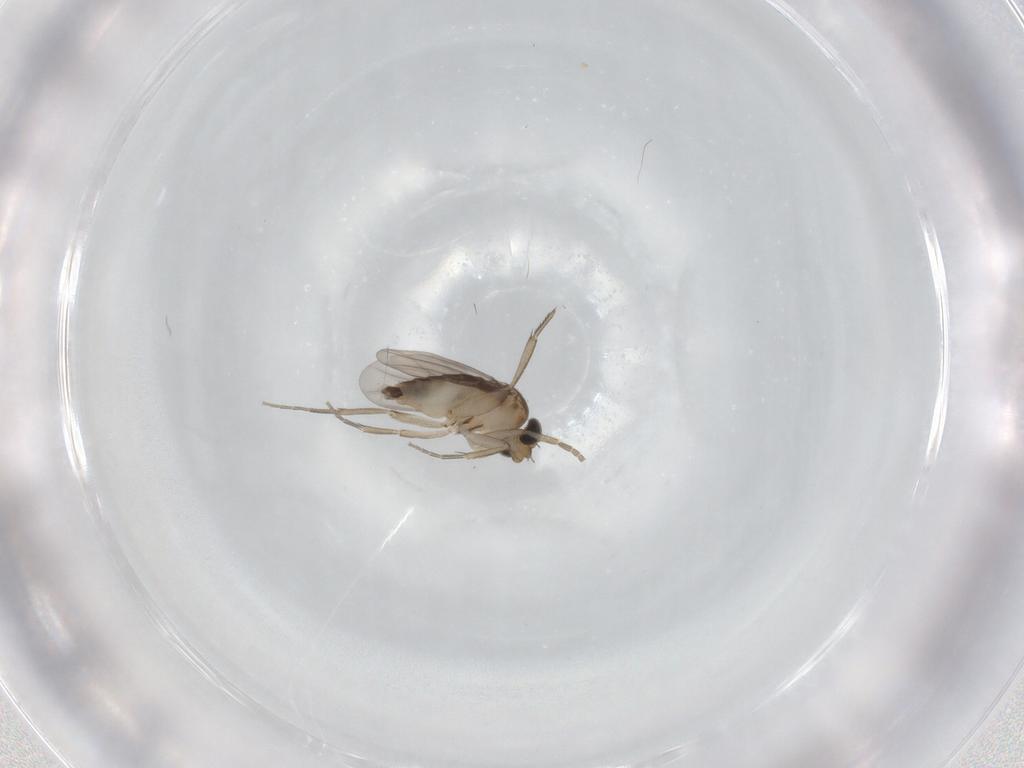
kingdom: Animalia
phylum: Arthropoda
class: Insecta
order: Diptera
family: Phoridae
